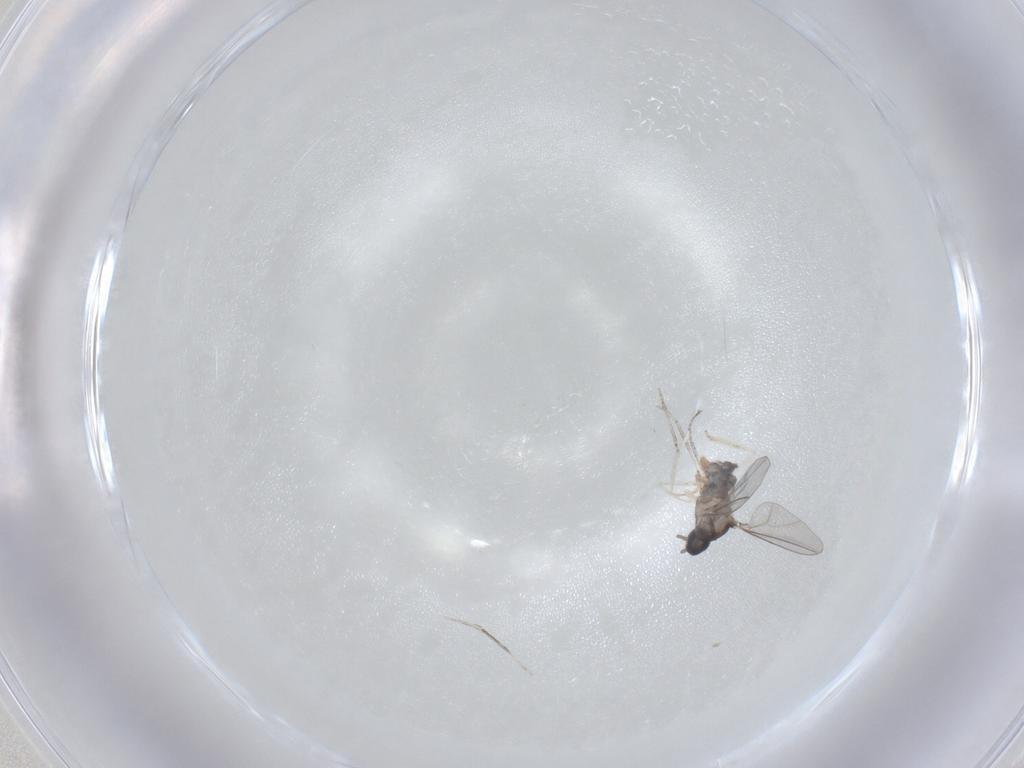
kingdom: Animalia
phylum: Arthropoda
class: Insecta
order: Diptera
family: Cecidomyiidae
